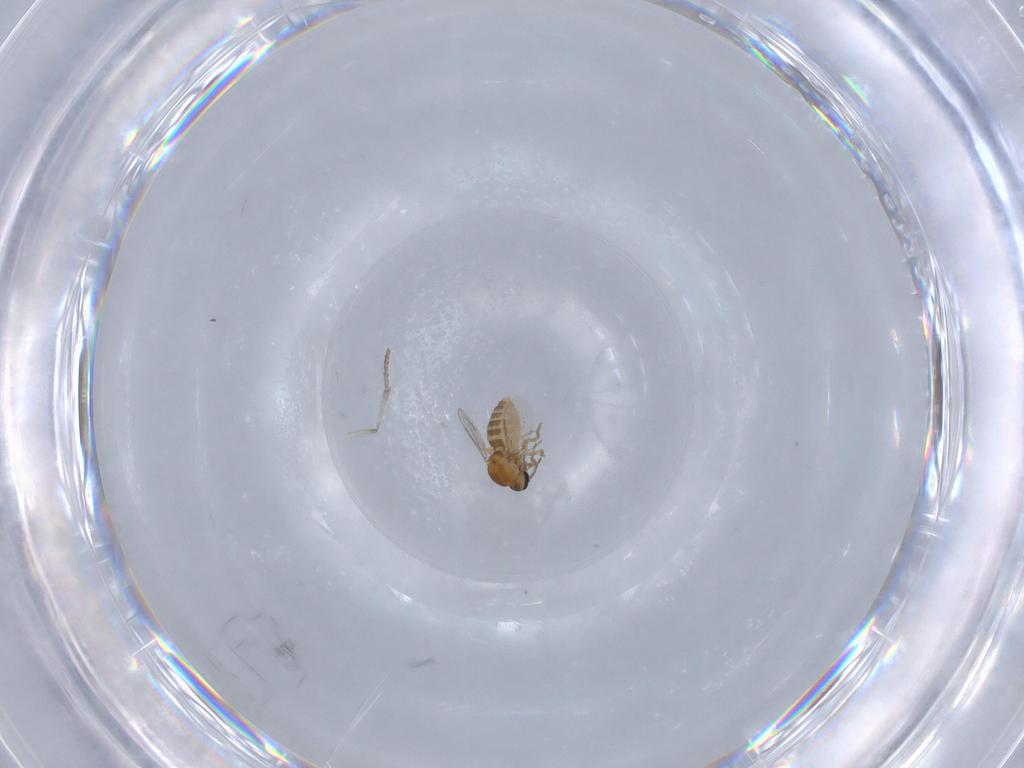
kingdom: Animalia
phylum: Arthropoda
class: Insecta
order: Diptera
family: Ceratopogonidae
